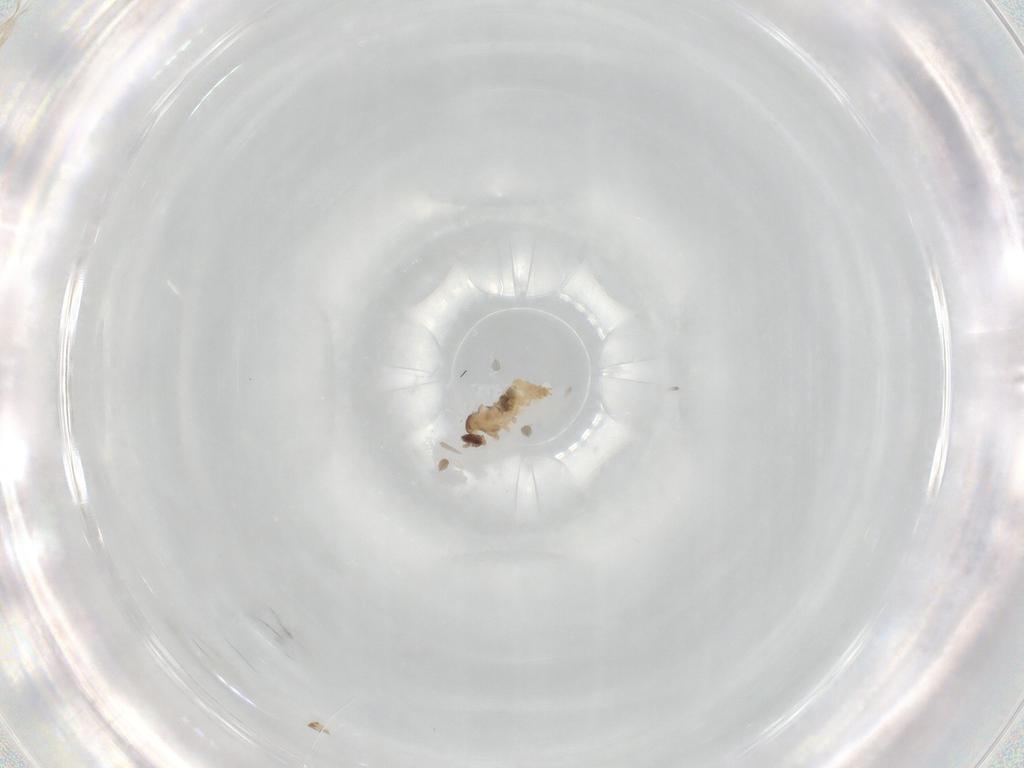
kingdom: Animalia
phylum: Arthropoda
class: Insecta
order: Diptera
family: Cecidomyiidae
